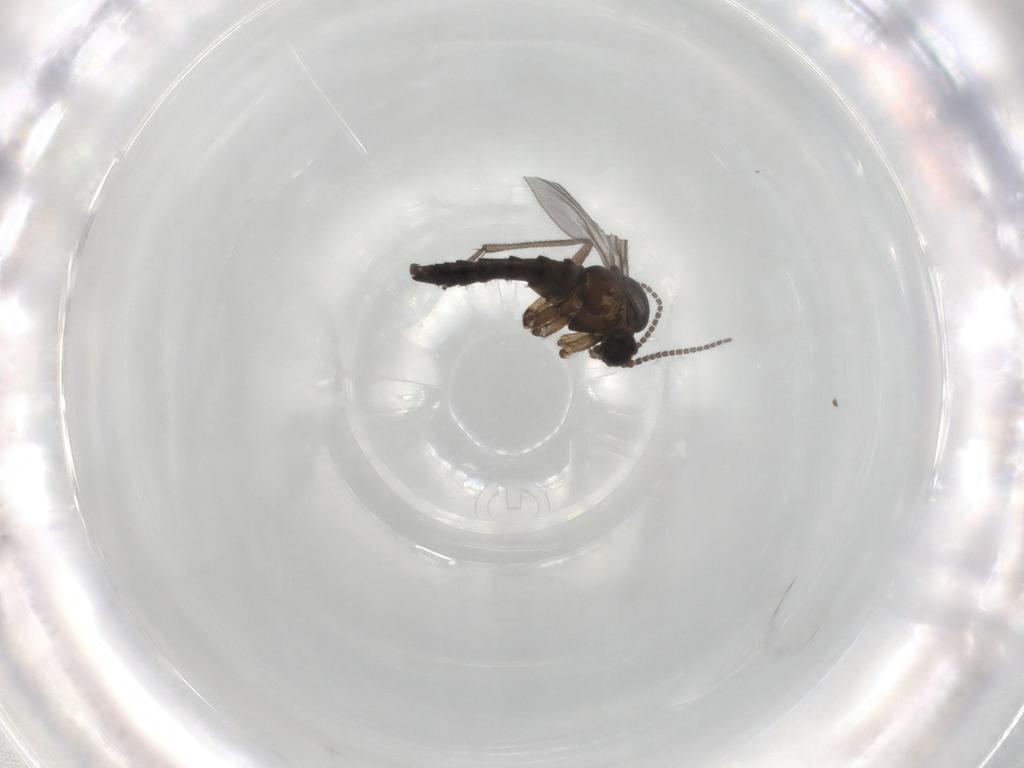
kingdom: Animalia
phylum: Arthropoda
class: Insecta
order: Diptera
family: Sciaridae
